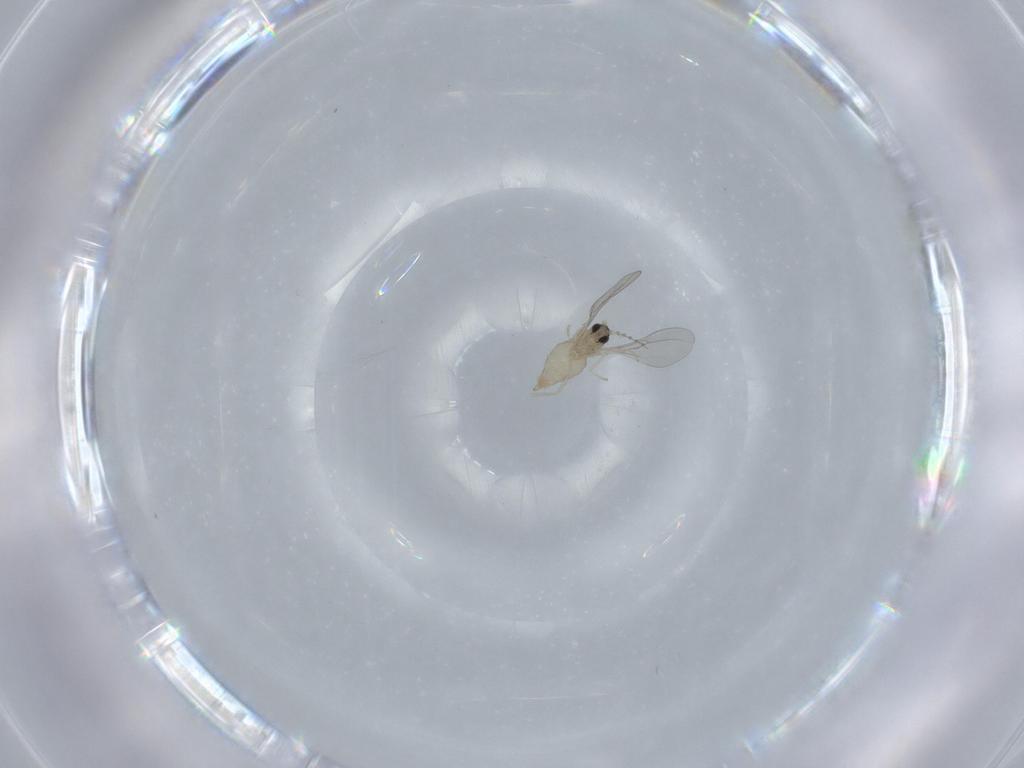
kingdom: Animalia
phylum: Arthropoda
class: Insecta
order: Diptera
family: Cecidomyiidae
